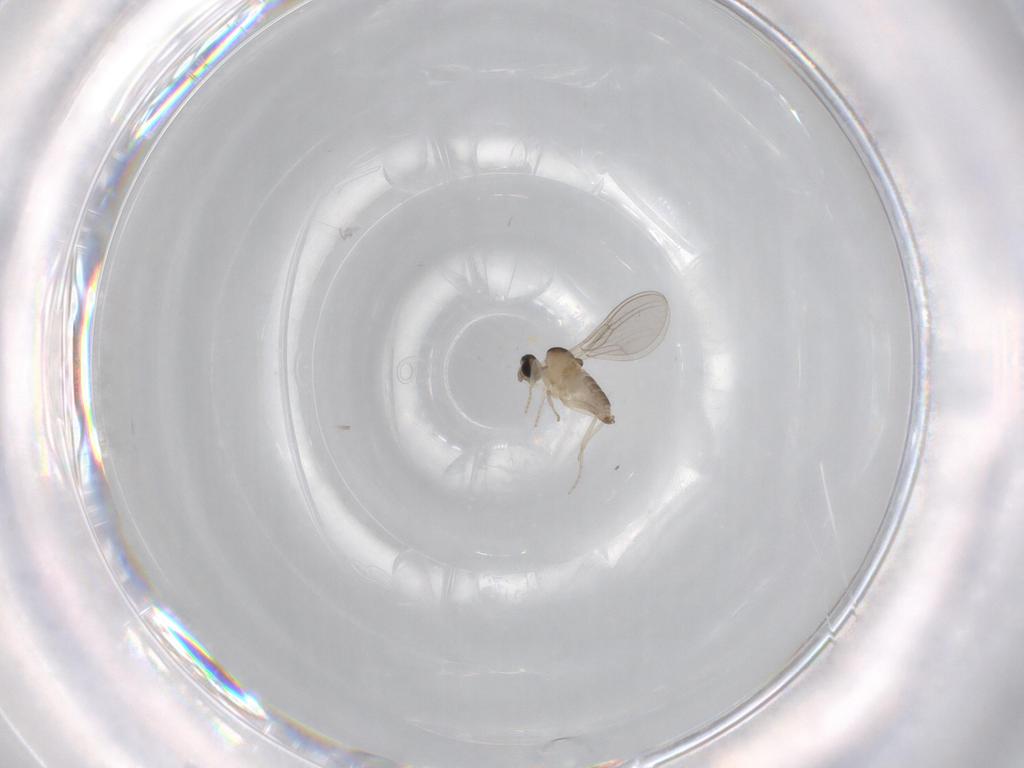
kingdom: Animalia
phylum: Arthropoda
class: Insecta
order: Diptera
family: Cecidomyiidae
